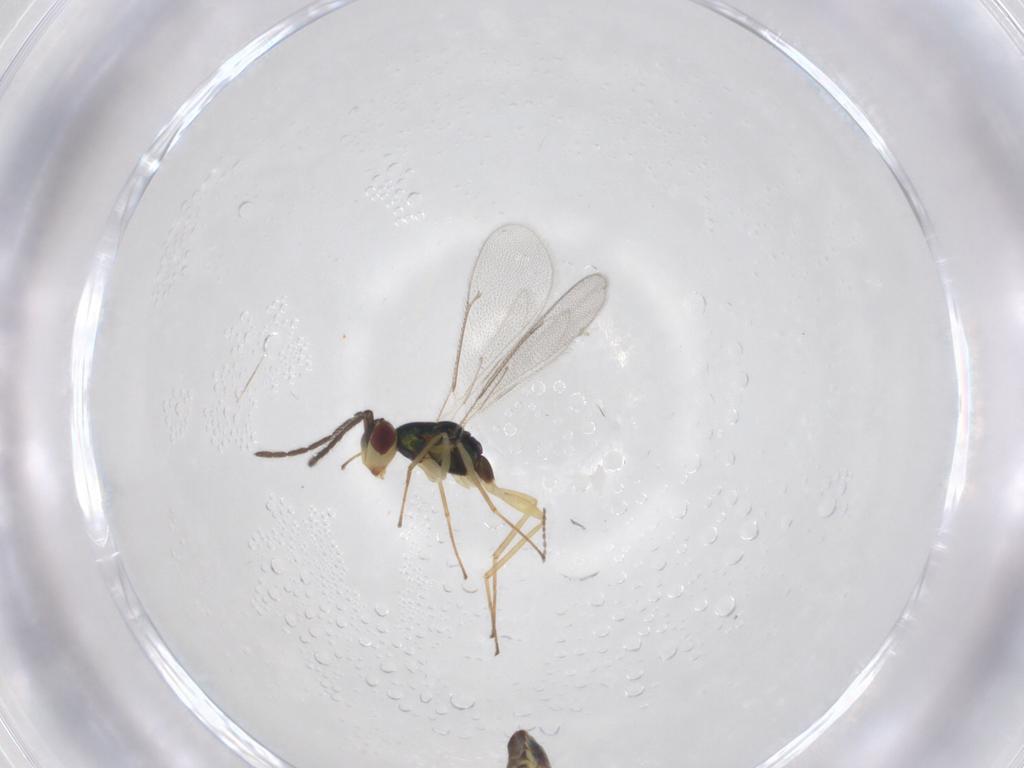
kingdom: Animalia
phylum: Arthropoda
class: Insecta
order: Hymenoptera
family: Eulophidae
